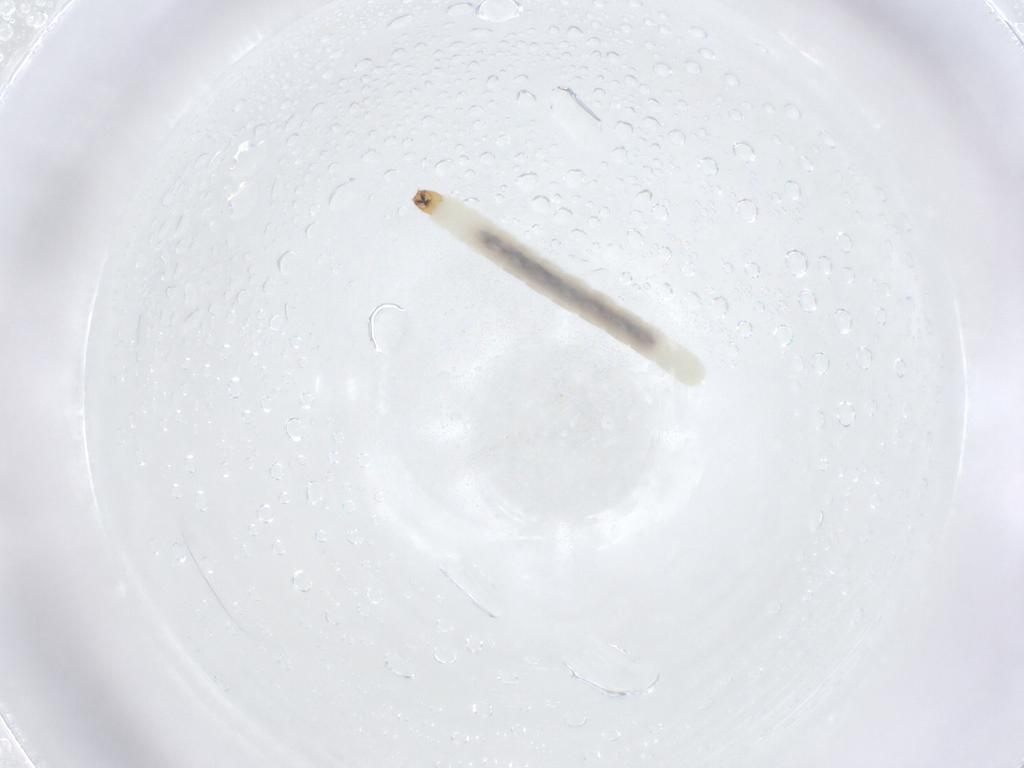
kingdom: Animalia
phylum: Arthropoda
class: Insecta
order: Diptera
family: Chironomidae
